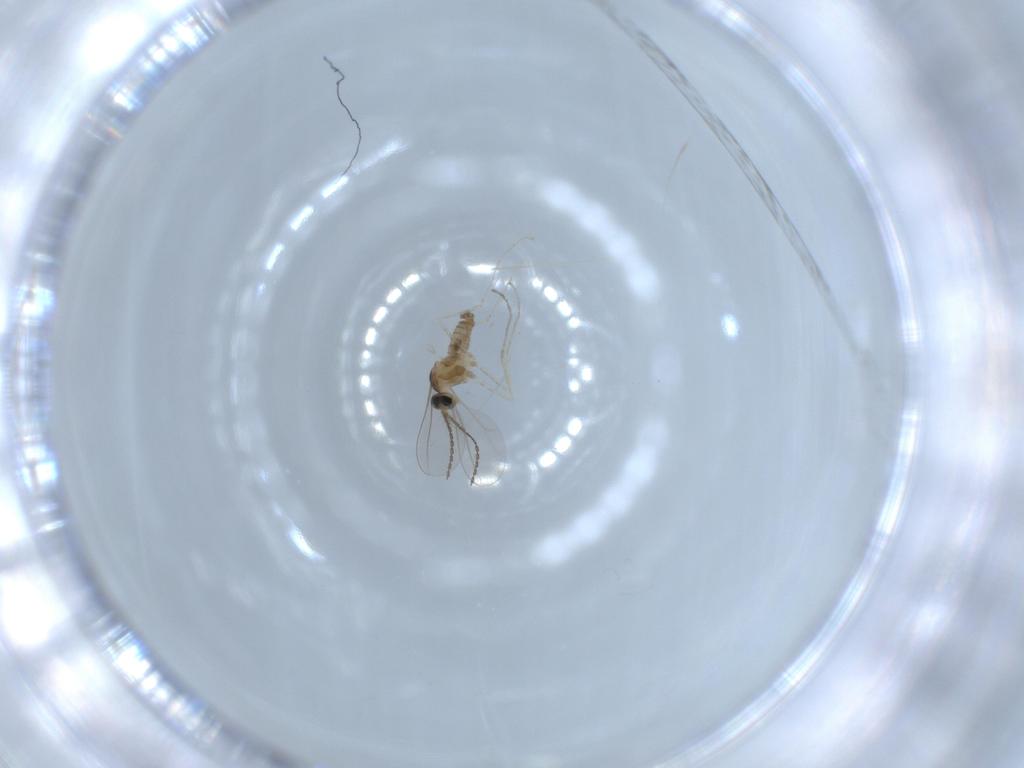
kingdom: Animalia
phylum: Arthropoda
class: Insecta
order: Diptera
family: Cecidomyiidae
